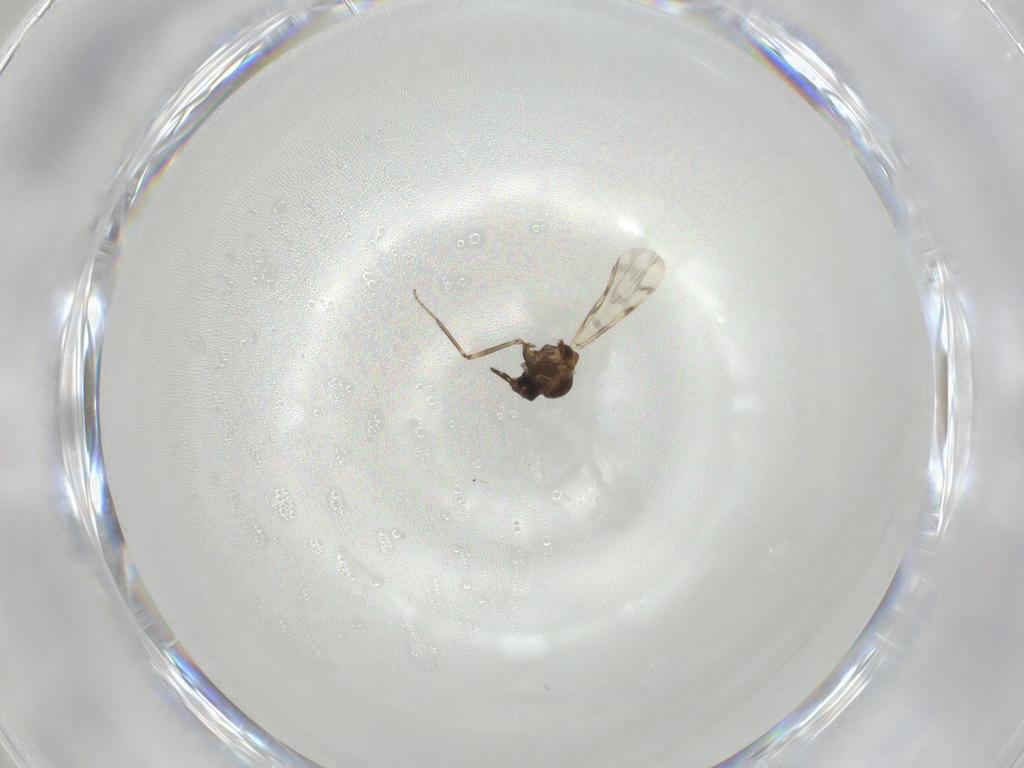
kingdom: Animalia
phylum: Arthropoda
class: Insecta
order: Diptera
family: Ceratopogonidae
